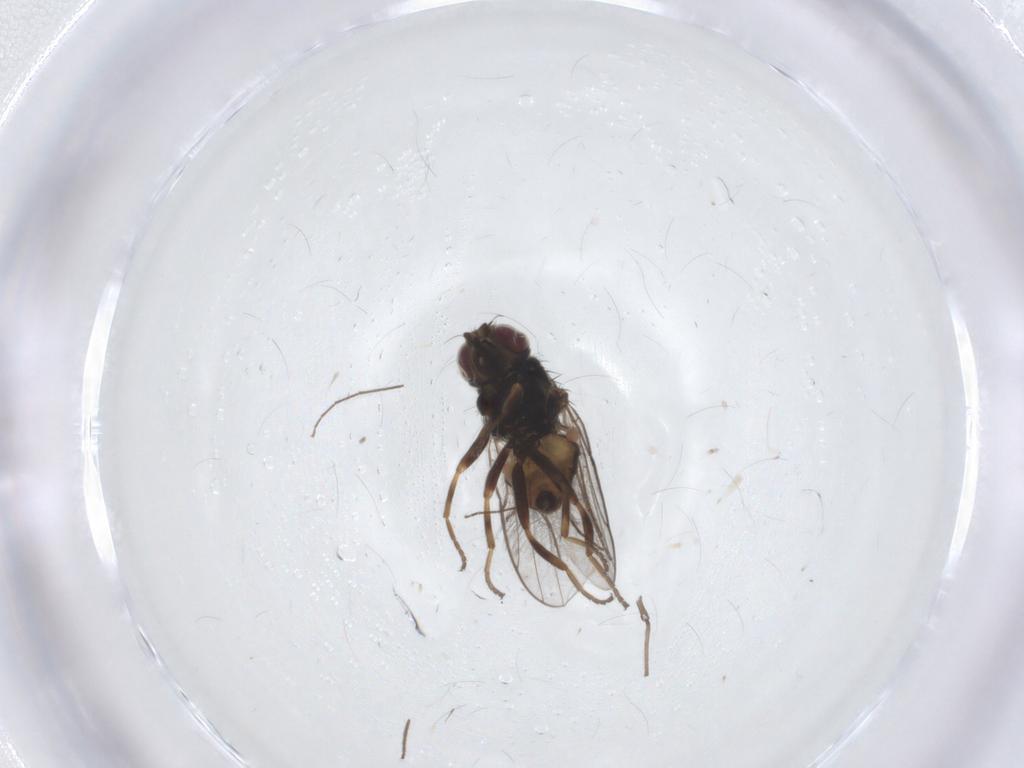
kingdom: Animalia
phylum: Arthropoda
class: Insecta
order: Diptera
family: Chloropidae
